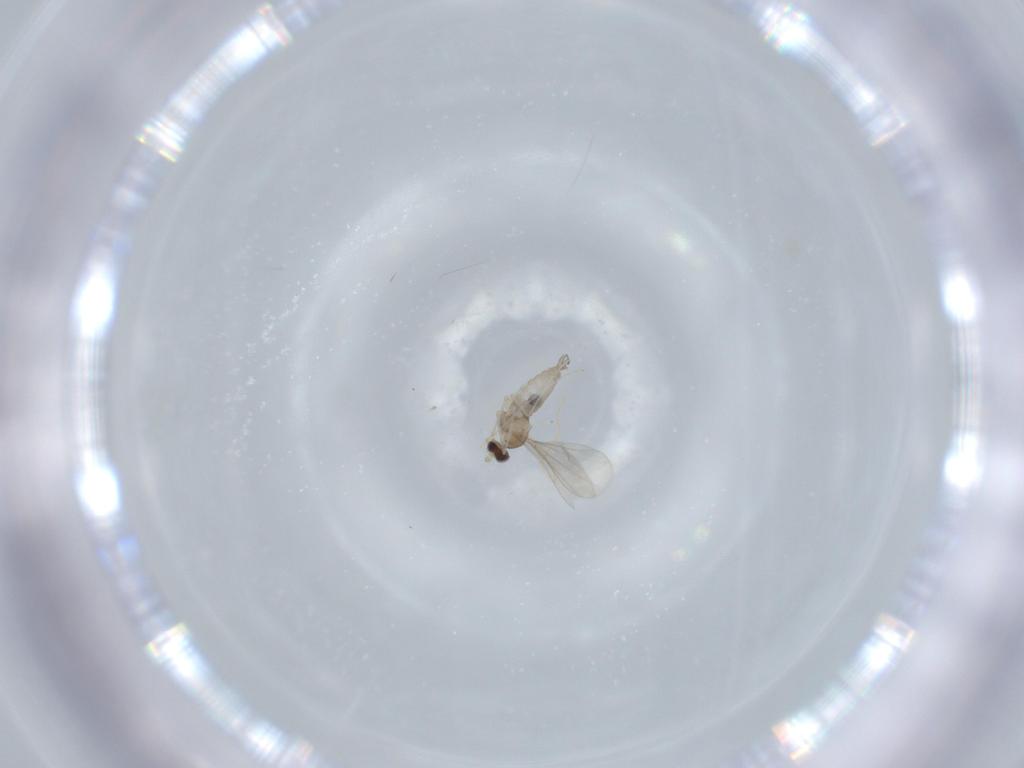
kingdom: Animalia
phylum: Arthropoda
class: Insecta
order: Diptera
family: Cecidomyiidae
